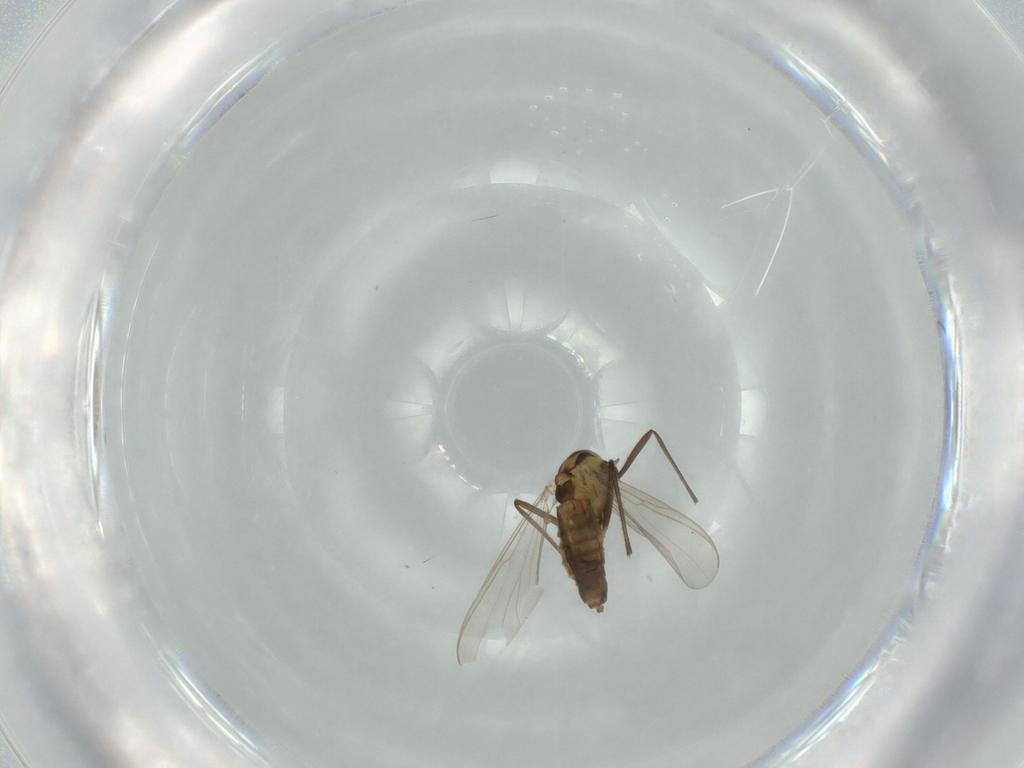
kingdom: Animalia
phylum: Arthropoda
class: Insecta
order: Diptera
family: Chironomidae
